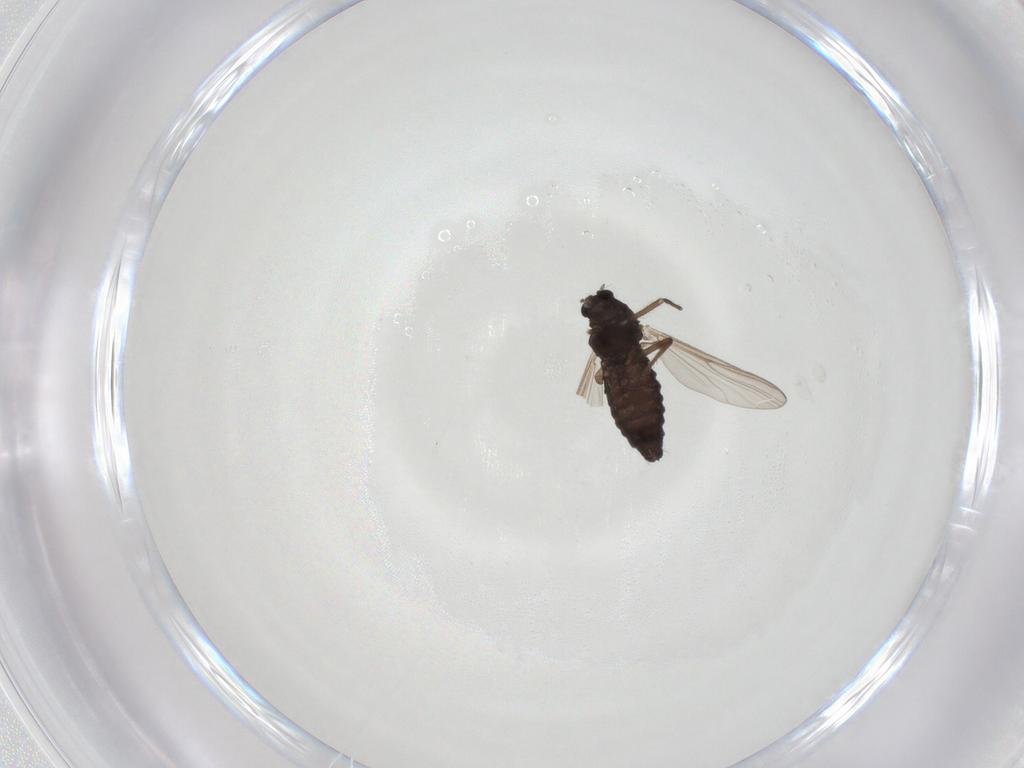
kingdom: Animalia
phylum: Arthropoda
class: Insecta
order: Diptera
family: Chironomidae
